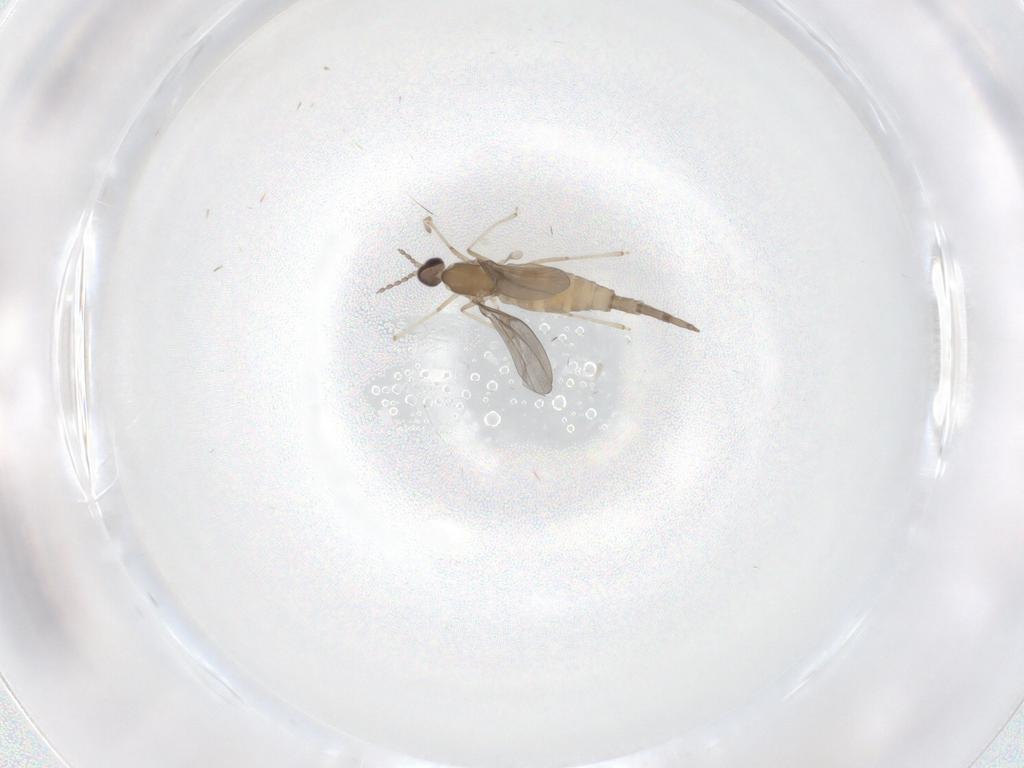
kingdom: Animalia
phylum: Arthropoda
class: Insecta
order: Diptera
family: Cecidomyiidae
